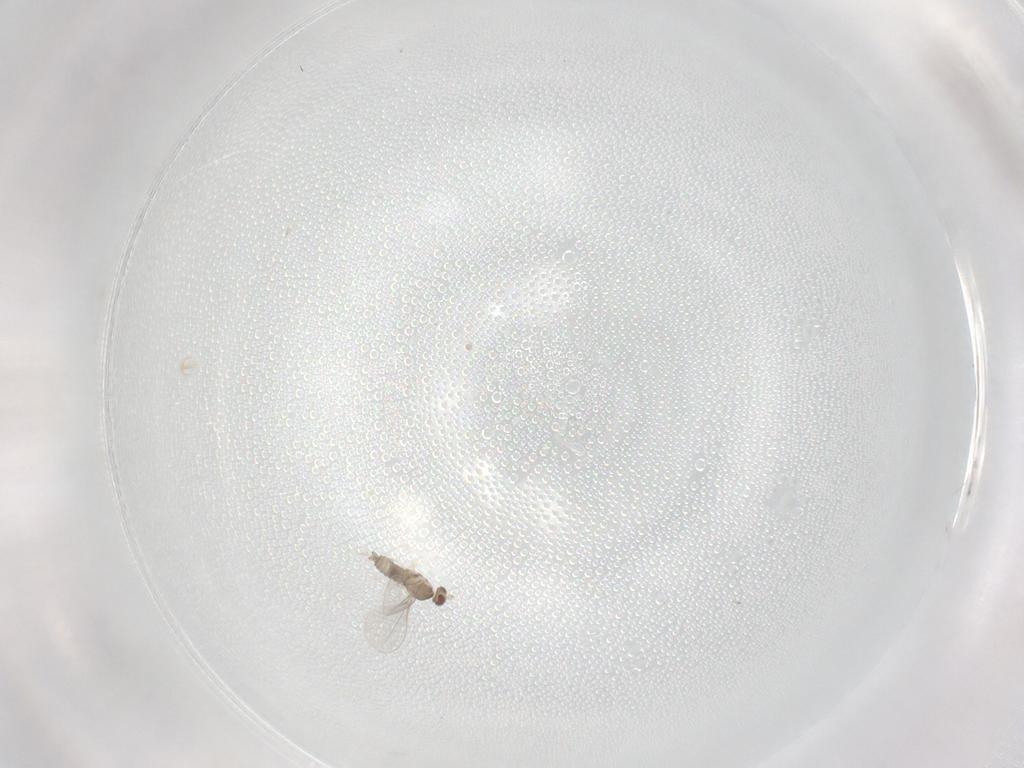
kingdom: Animalia
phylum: Arthropoda
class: Insecta
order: Diptera
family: Cecidomyiidae
